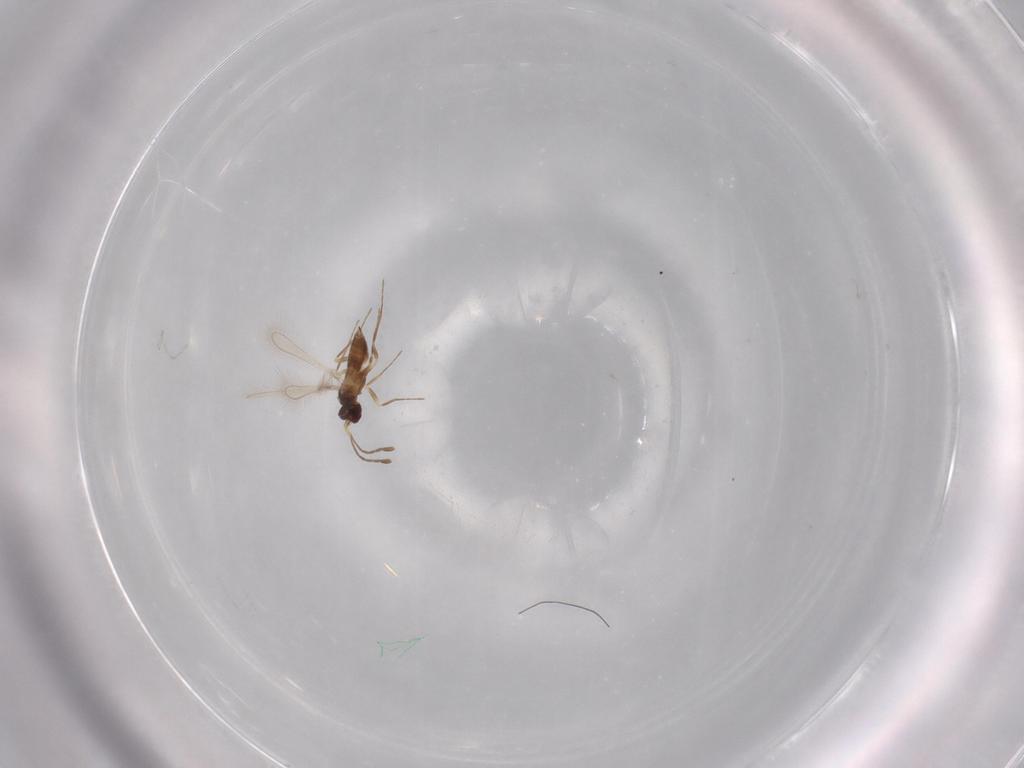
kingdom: Animalia
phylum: Arthropoda
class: Insecta
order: Hymenoptera
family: Mymaridae
